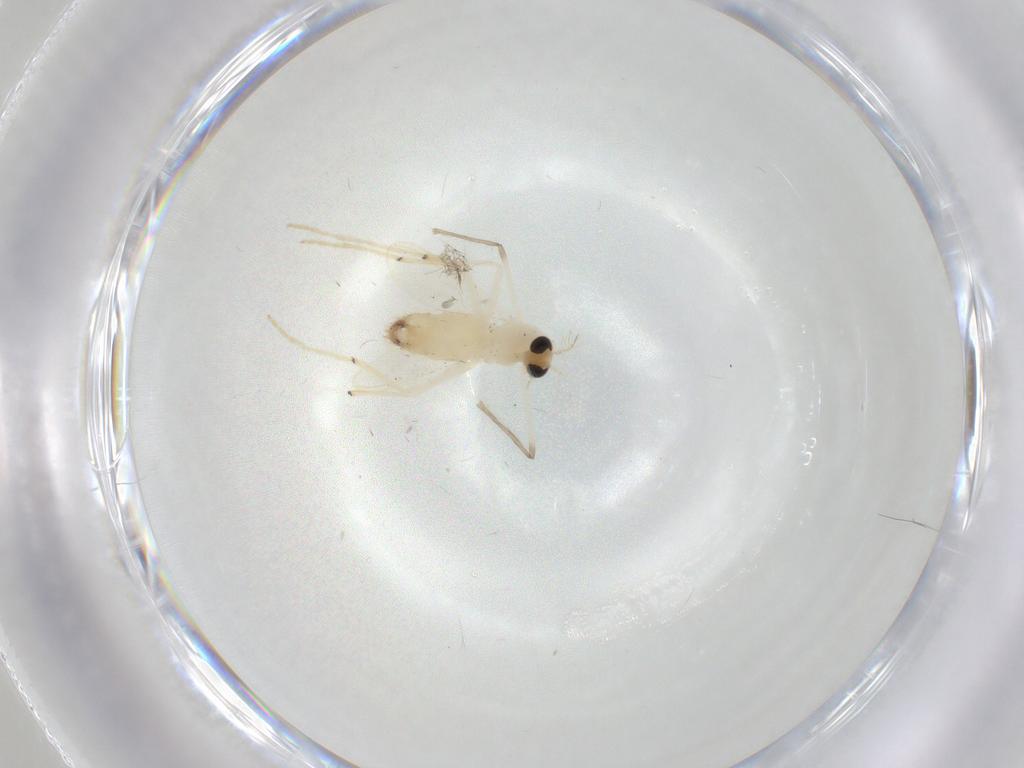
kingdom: Animalia
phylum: Arthropoda
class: Insecta
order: Diptera
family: Chironomidae
